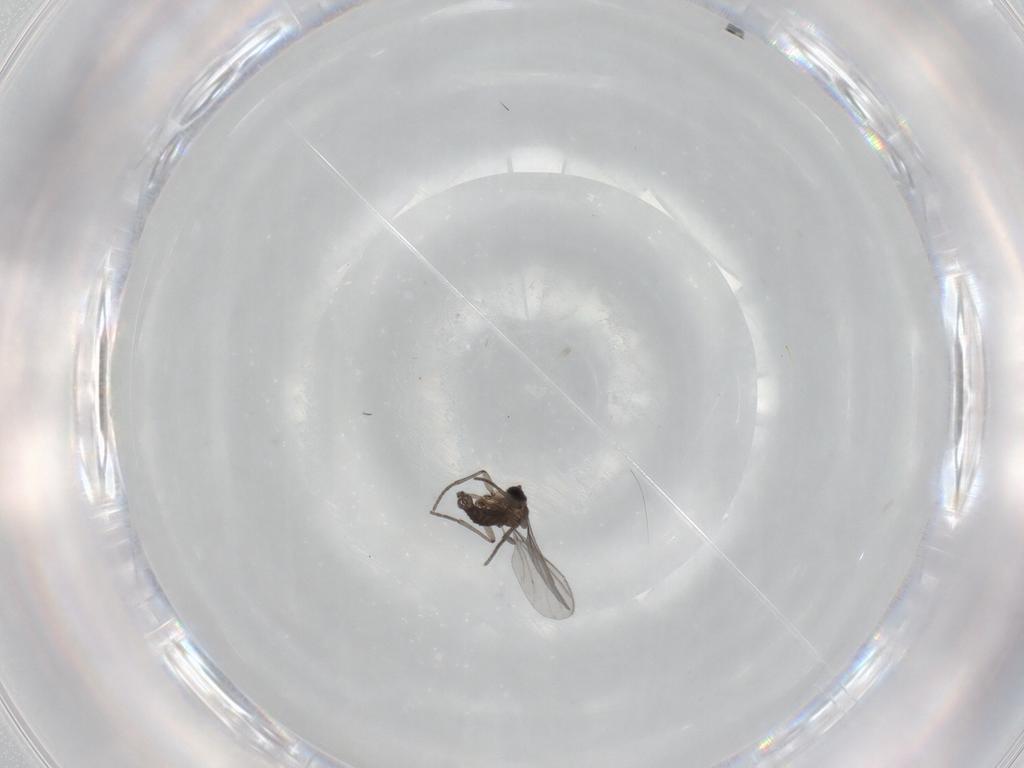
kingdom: Animalia
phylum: Arthropoda
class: Insecta
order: Diptera
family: Sciaridae
